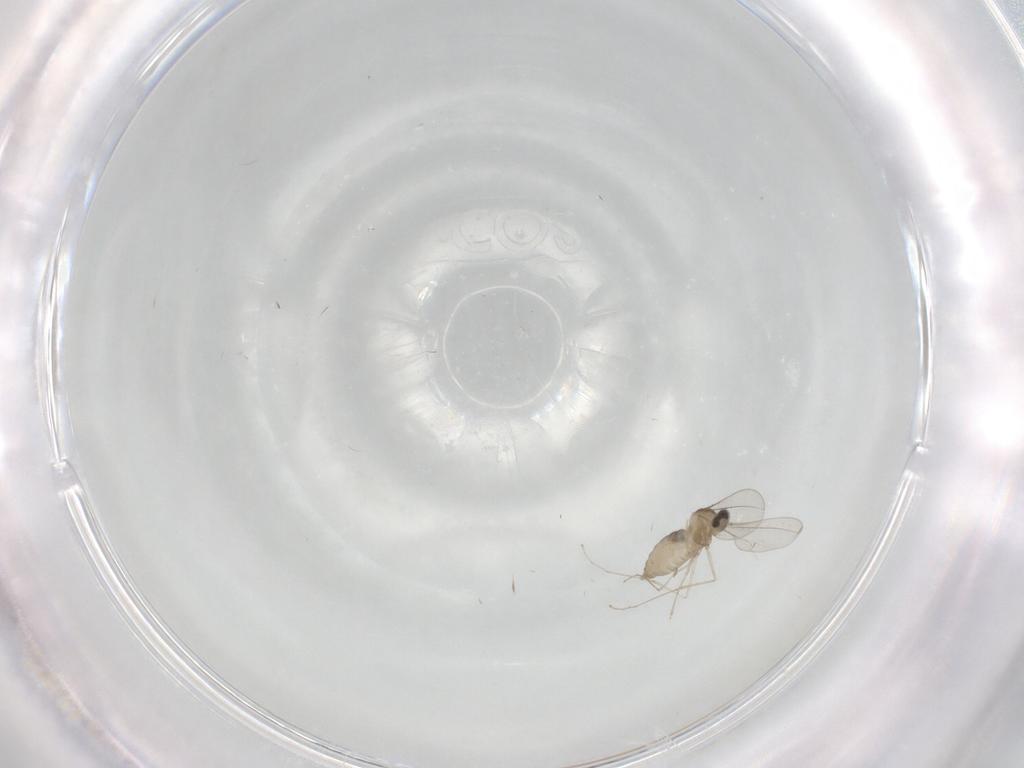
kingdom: Animalia
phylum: Arthropoda
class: Insecta
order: Diptera
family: Cecidomyiidae
